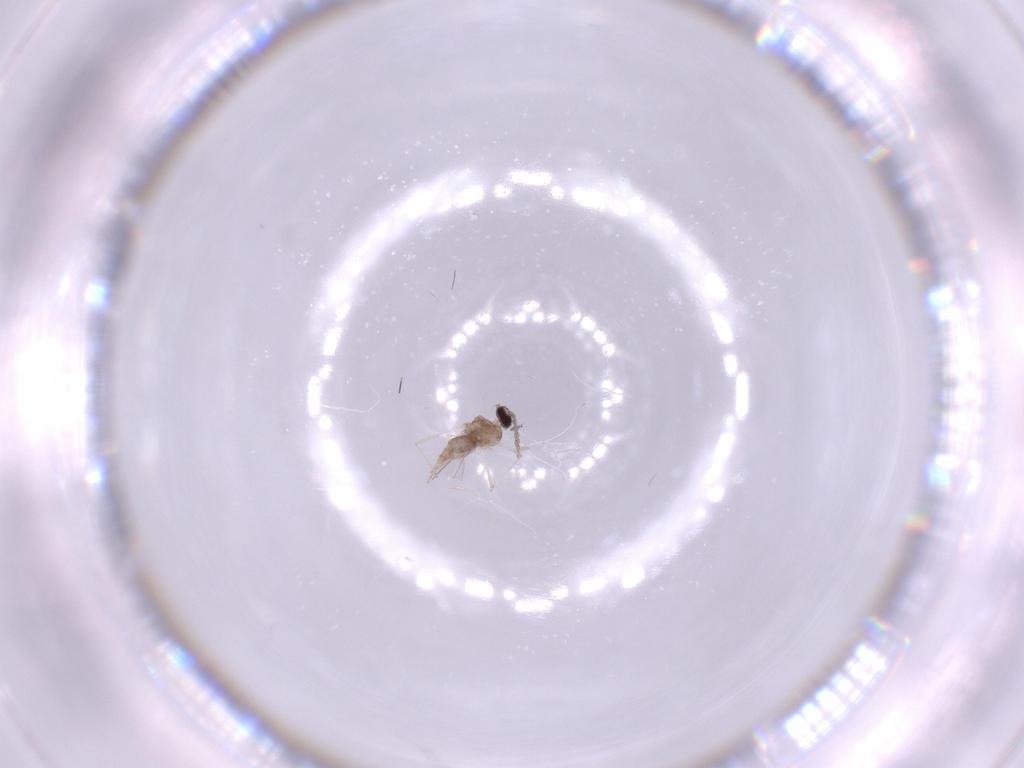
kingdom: Animalia
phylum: Arthropoda
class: Insecta
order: Diptera
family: Cecidomyiidae
